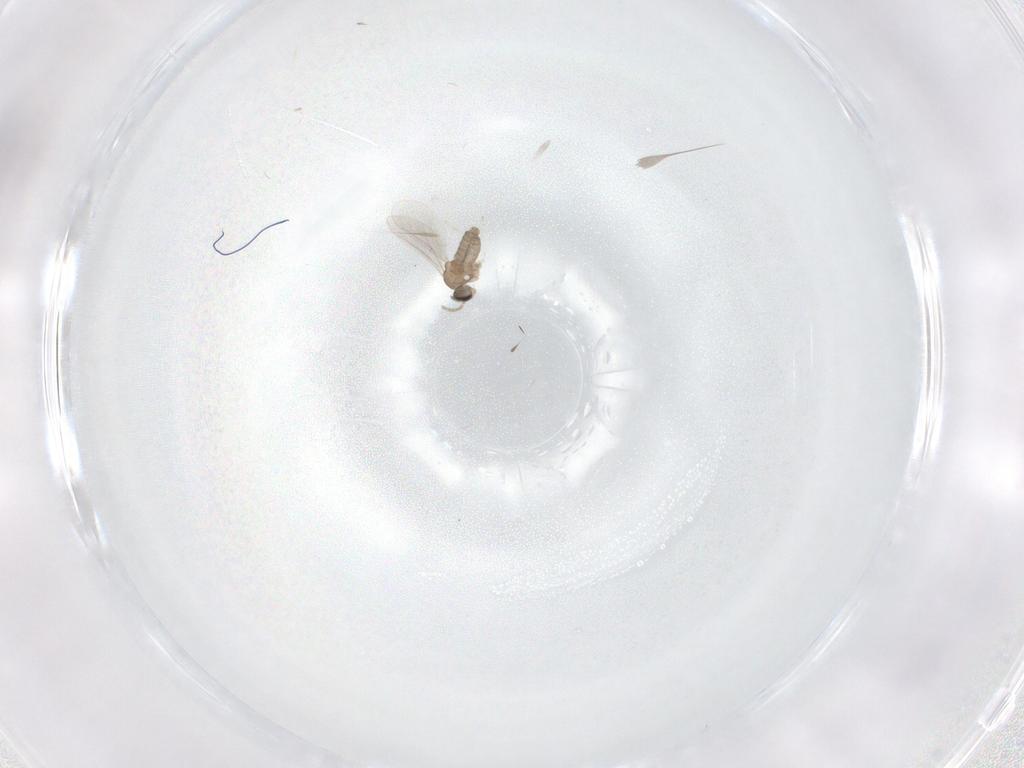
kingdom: Animalia
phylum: Arthropoda
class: Insecta
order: Diptera
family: Cecidomyiidae
